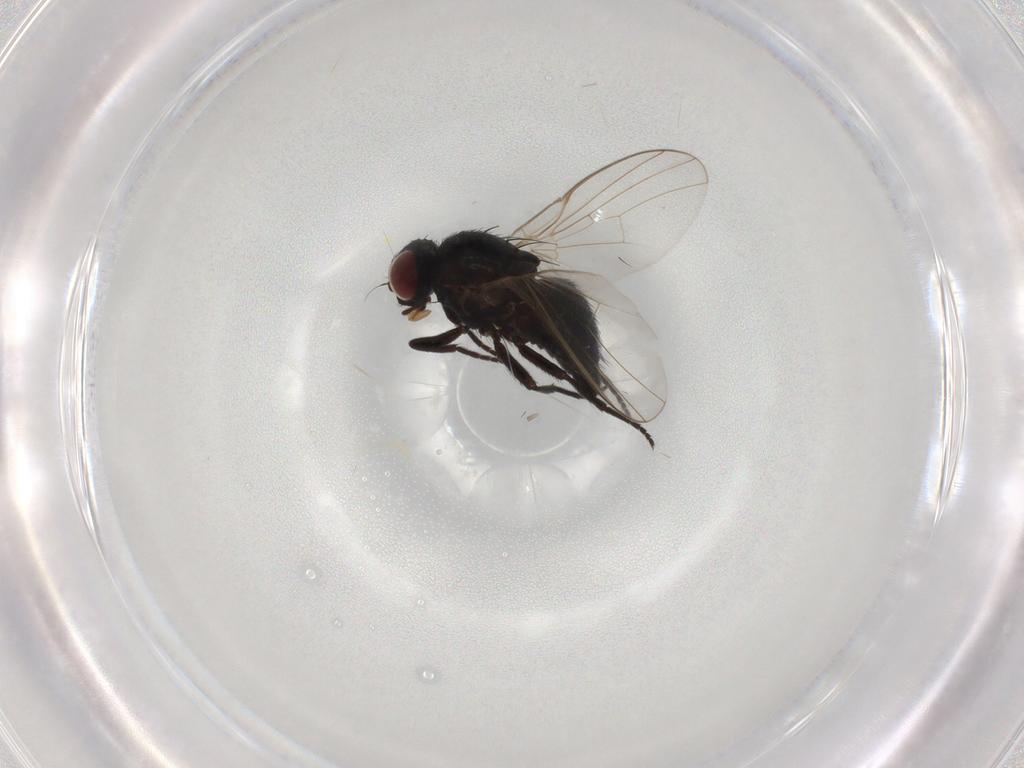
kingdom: Animalia
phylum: Arthropoda
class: Insecta
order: Diptera
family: Agromyzidae
